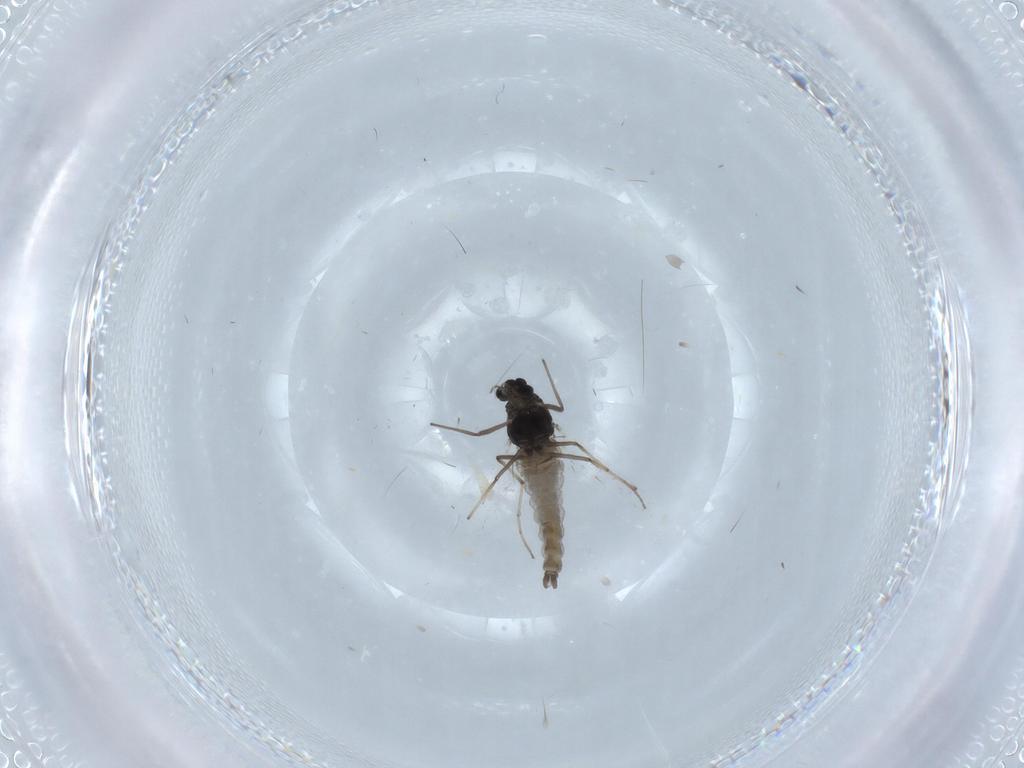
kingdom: Animalia
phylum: Arthropoda
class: Insecta
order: Diptera
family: Chironomidae
